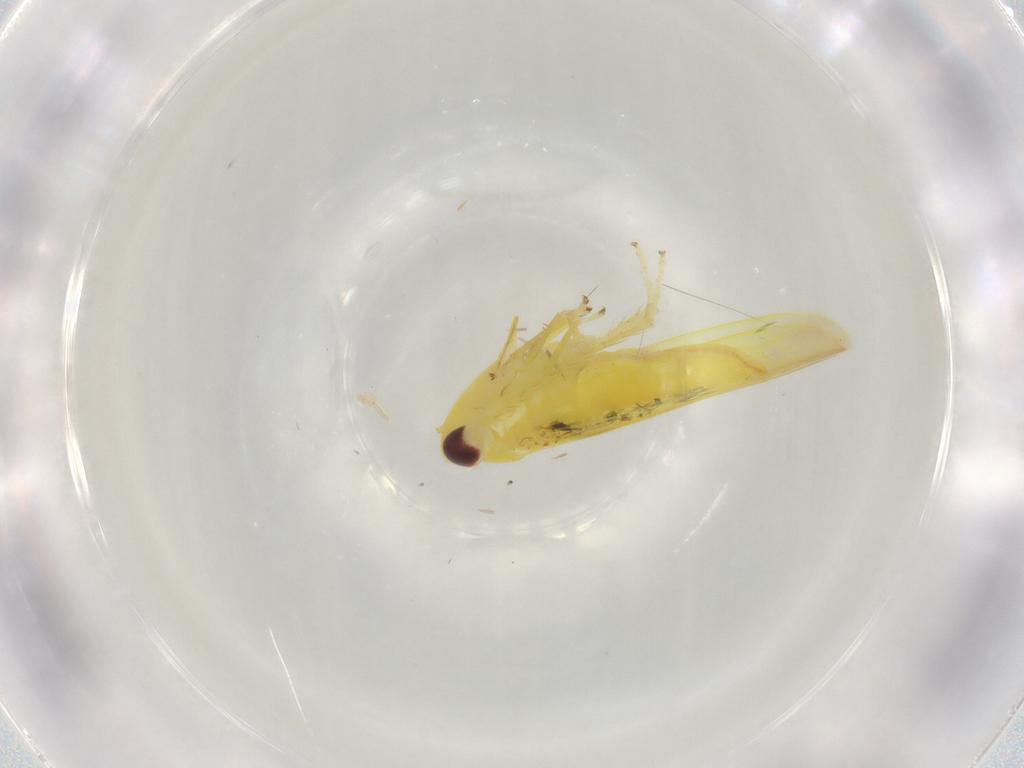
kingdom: Animalia
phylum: Arthropoda
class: Insecta
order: Hemiptera
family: Cicadellidae
